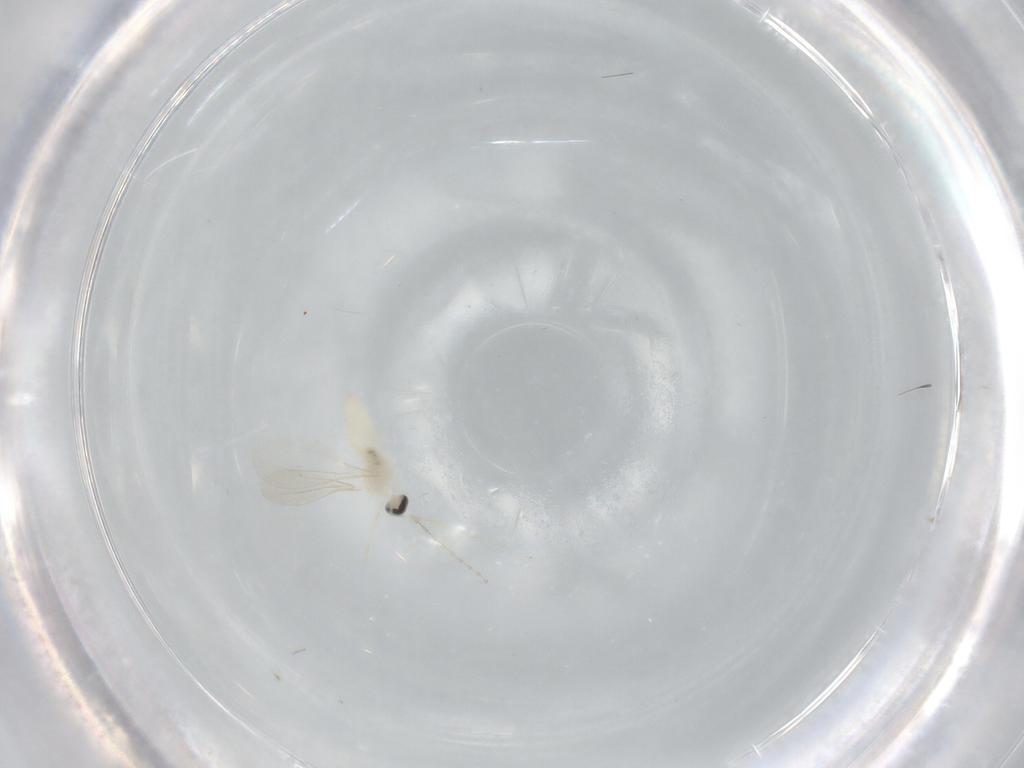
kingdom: Animalia
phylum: Arthropoda
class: Insecta
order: Diptera
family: Cecidomyiidae
